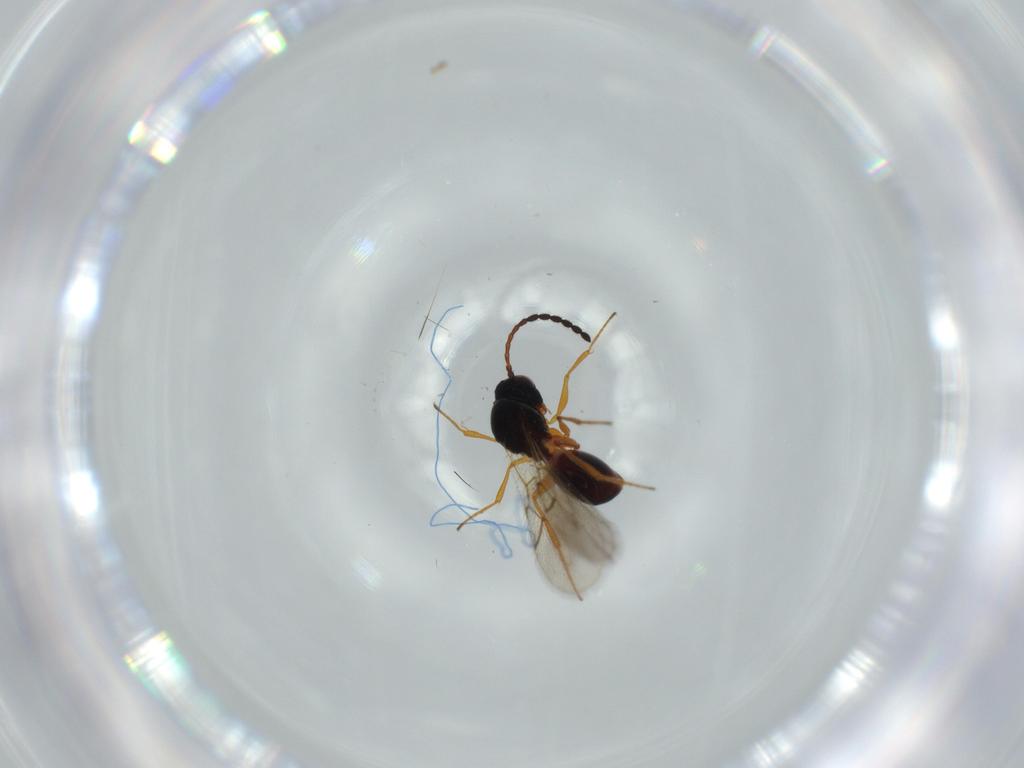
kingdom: Animalia
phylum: Arthropoda
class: Insecta
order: Hymenoptera
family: Figitidae
